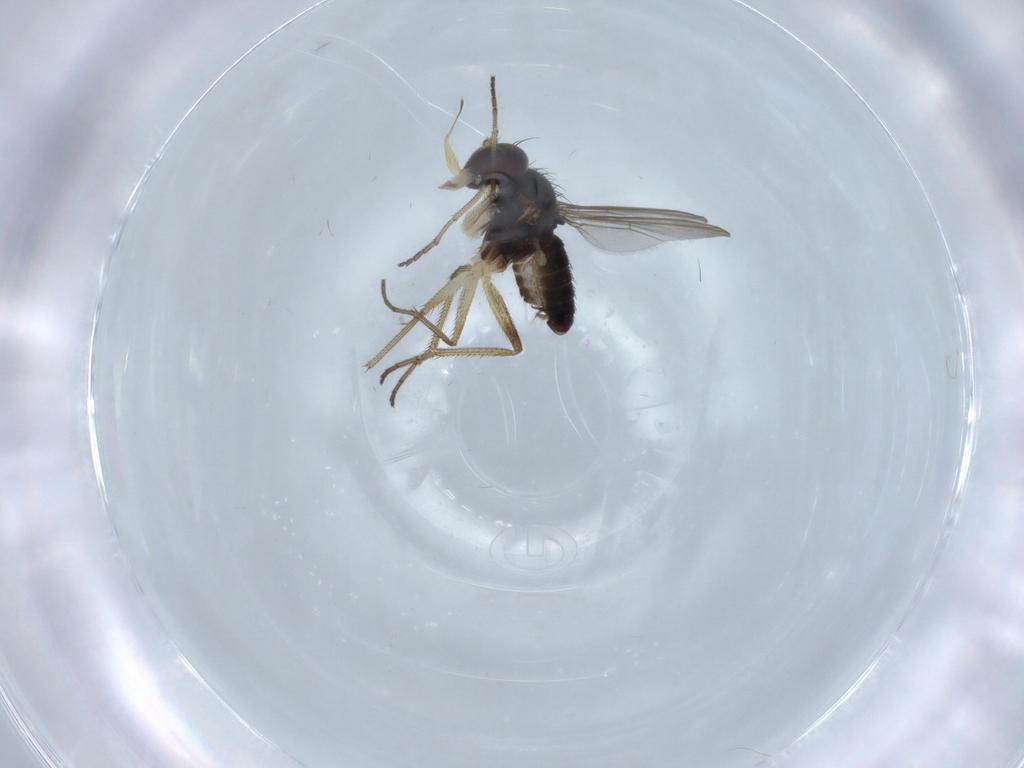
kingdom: Animalia
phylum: Arthropoda
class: Insecta
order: Diptera
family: Dolichopodidae
